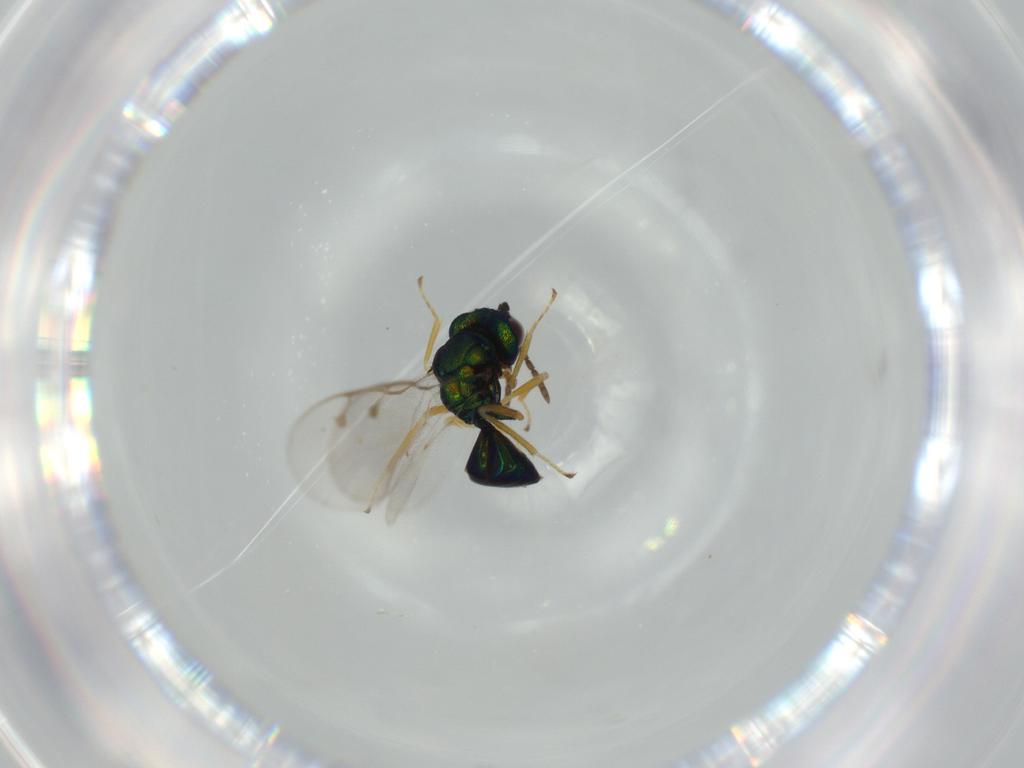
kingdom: Animalia
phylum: Arthropoda
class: Insecta
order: Hymenoptera
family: Pteromalidae
